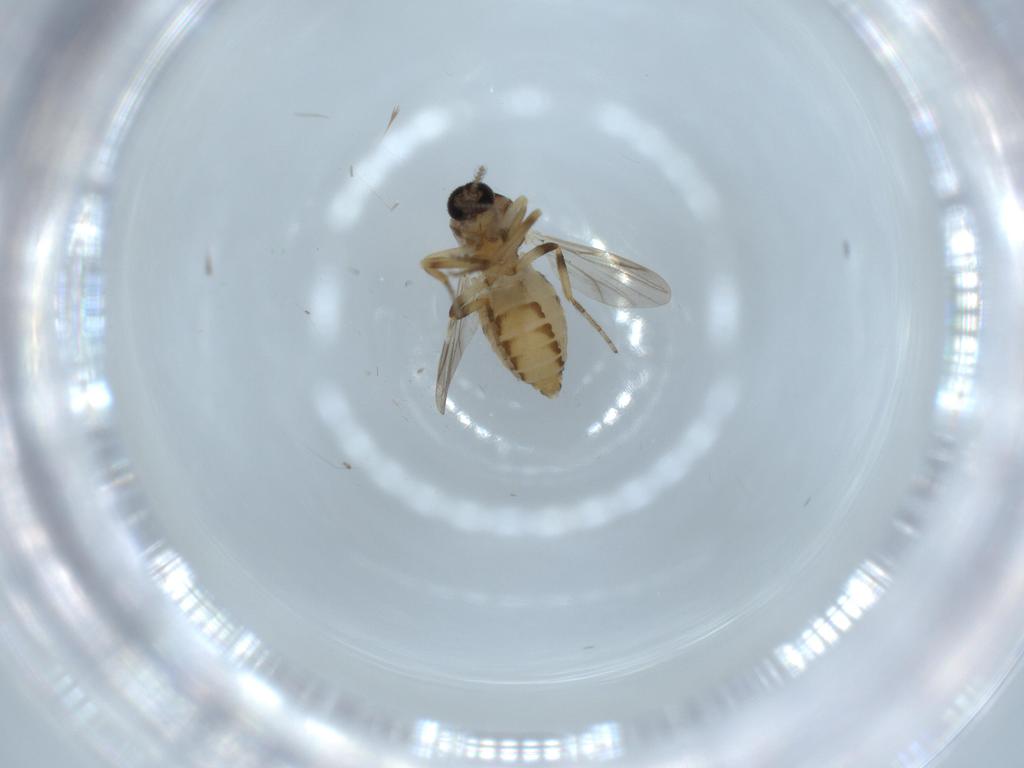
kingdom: Animalia
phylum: Arthropoda
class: Insecta
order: Diptera
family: Ceratopogonidae
